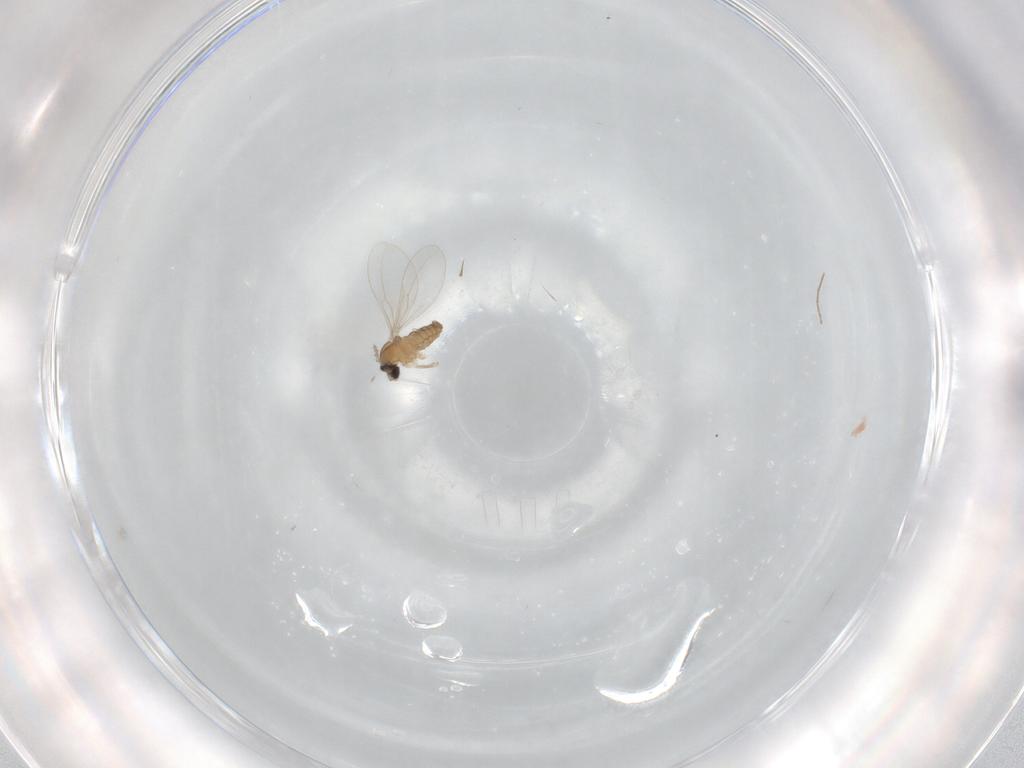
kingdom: Animalia
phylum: Arthropoda
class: Insecta
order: Diptera
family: Cecidomyiidae
